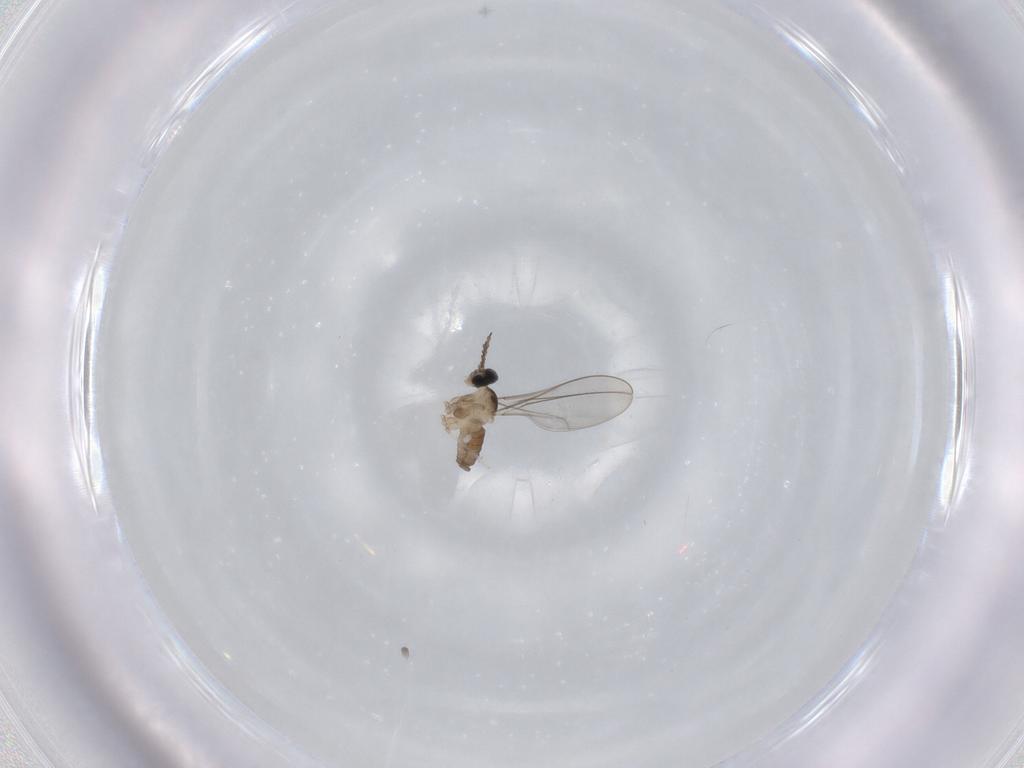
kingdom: Animalia
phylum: Arthropoda
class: Insecta
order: Diptera
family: Cecidomyiidae
